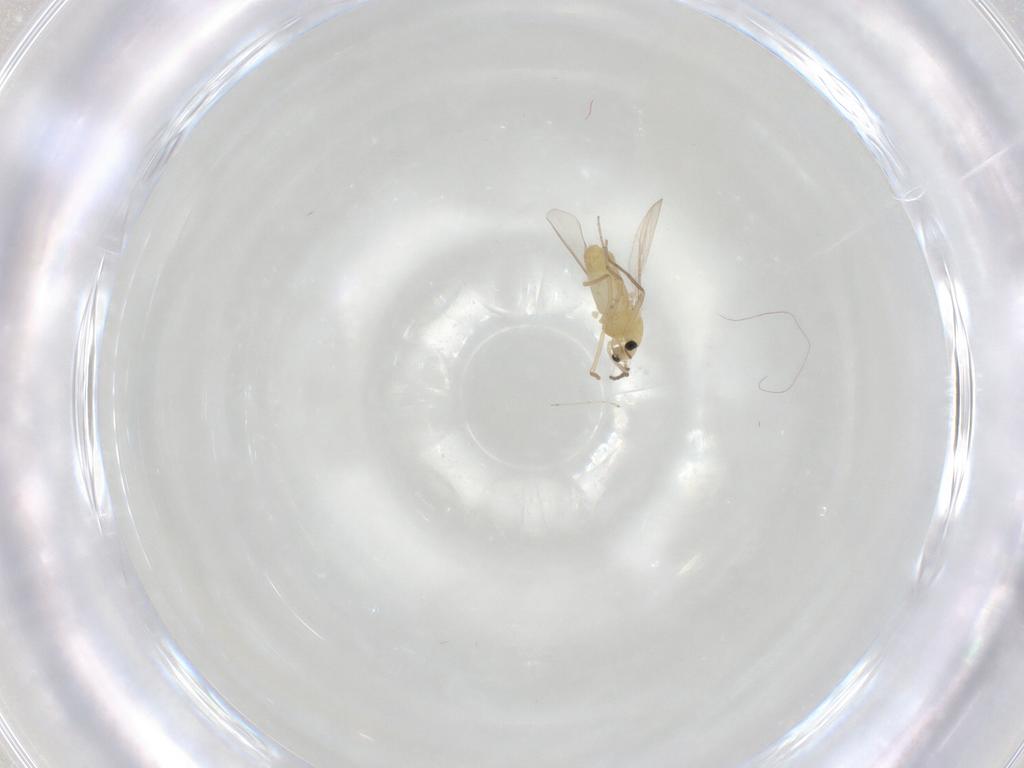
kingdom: Animalia
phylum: Arthropoda
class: Insecta
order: Diptera
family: Chironomidae
